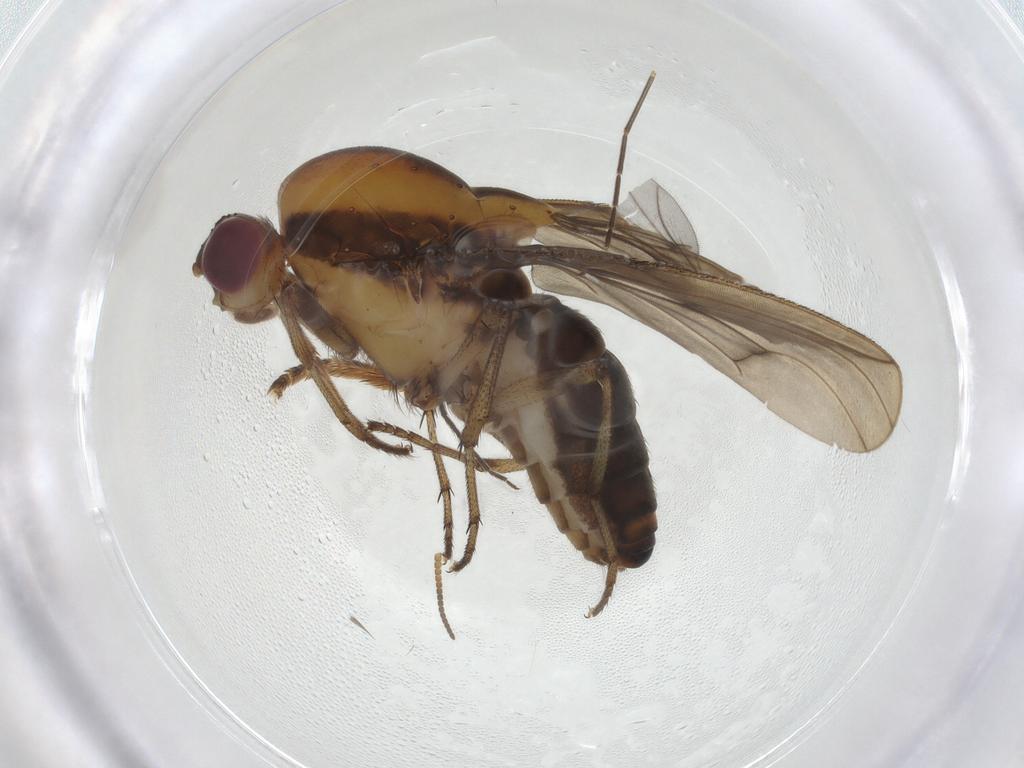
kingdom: Animalia
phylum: Arthropoda
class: Insecta
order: Diptera
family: Heleomyzidae
